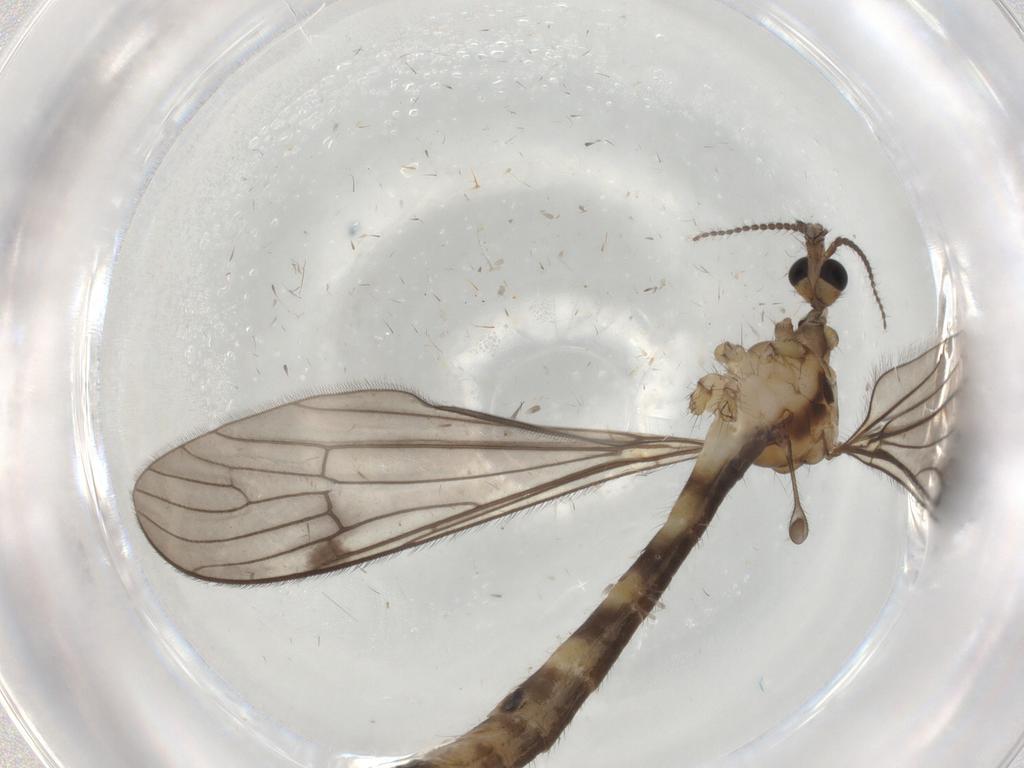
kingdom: Animalia
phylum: Arthropoda
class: Insecta
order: Diptera
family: Limoniidae
